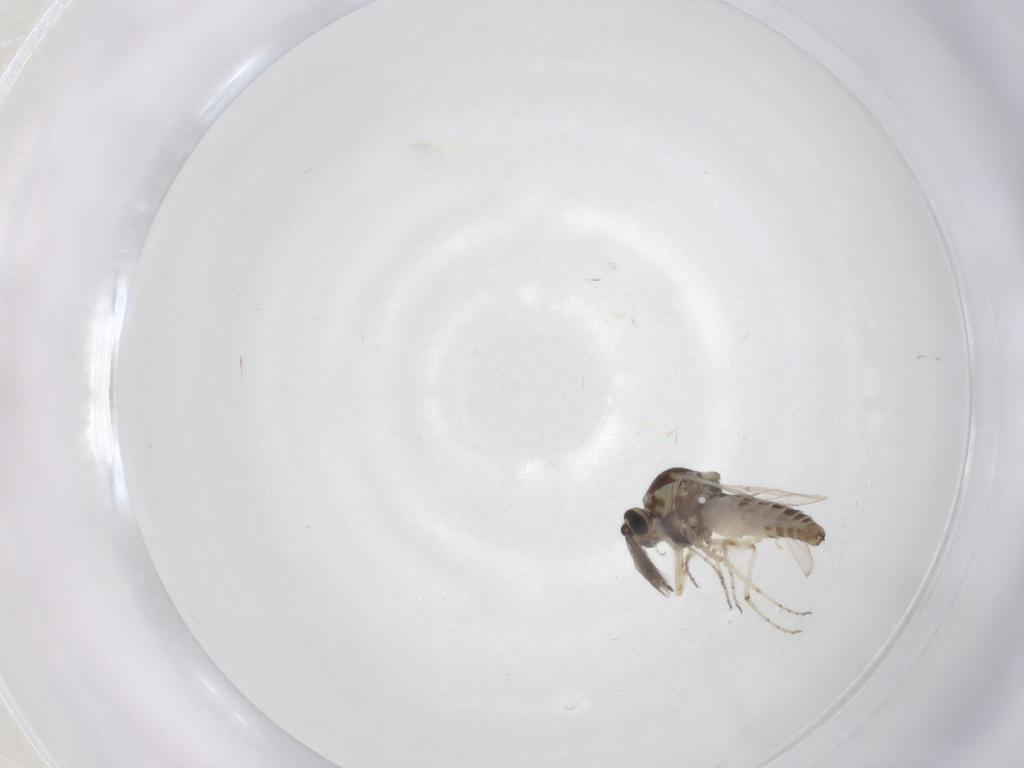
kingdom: Animalia
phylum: Arthropoda
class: Insecta
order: Diptera
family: Ceratopogonidae
